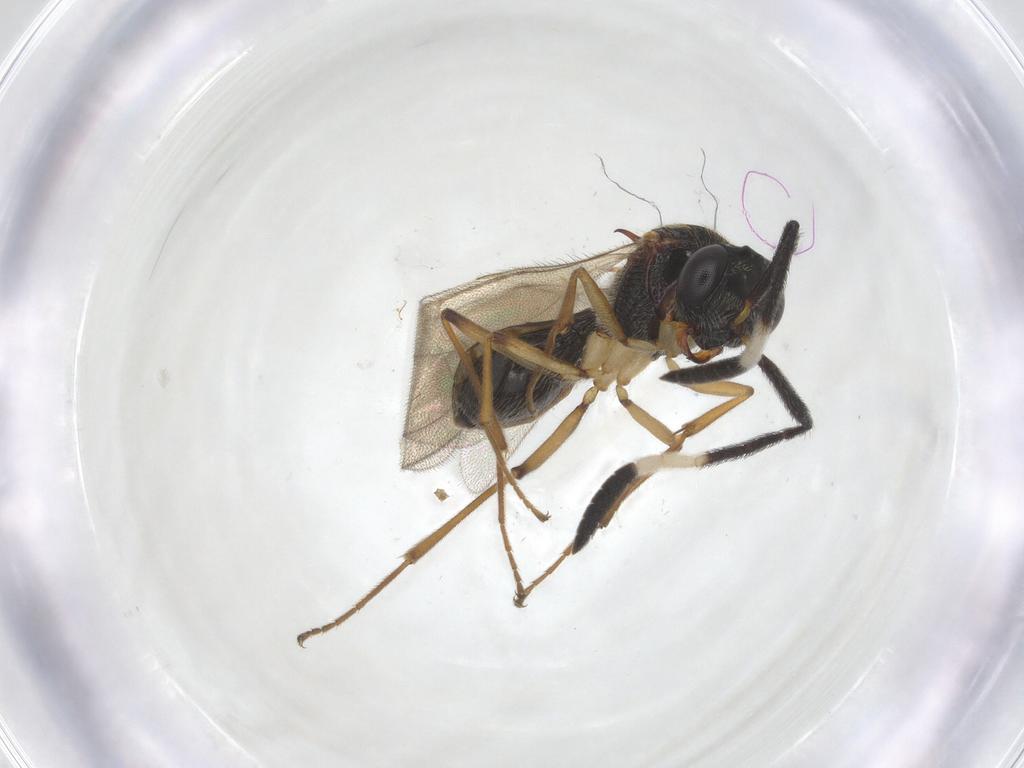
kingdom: Animalia
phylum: Arthropoda
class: Insecta
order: Hymenoptera
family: Scelionidae
